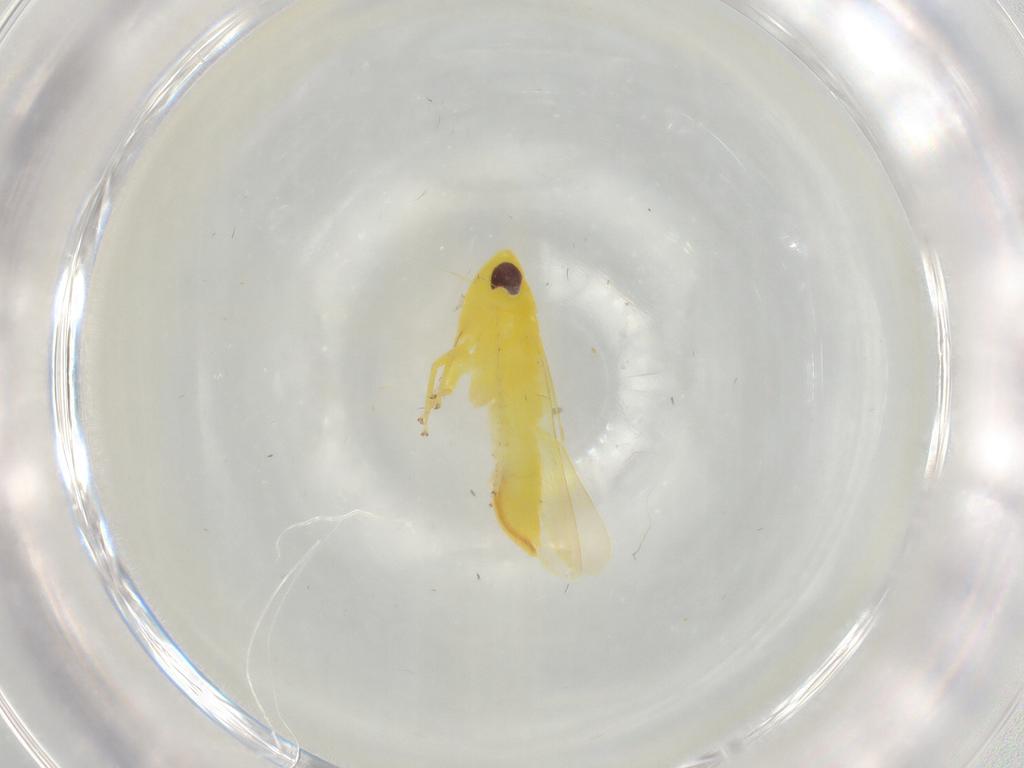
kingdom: Animalia
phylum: Arthropoda
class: Insecta
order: Hemiptera
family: Cicadellidae
